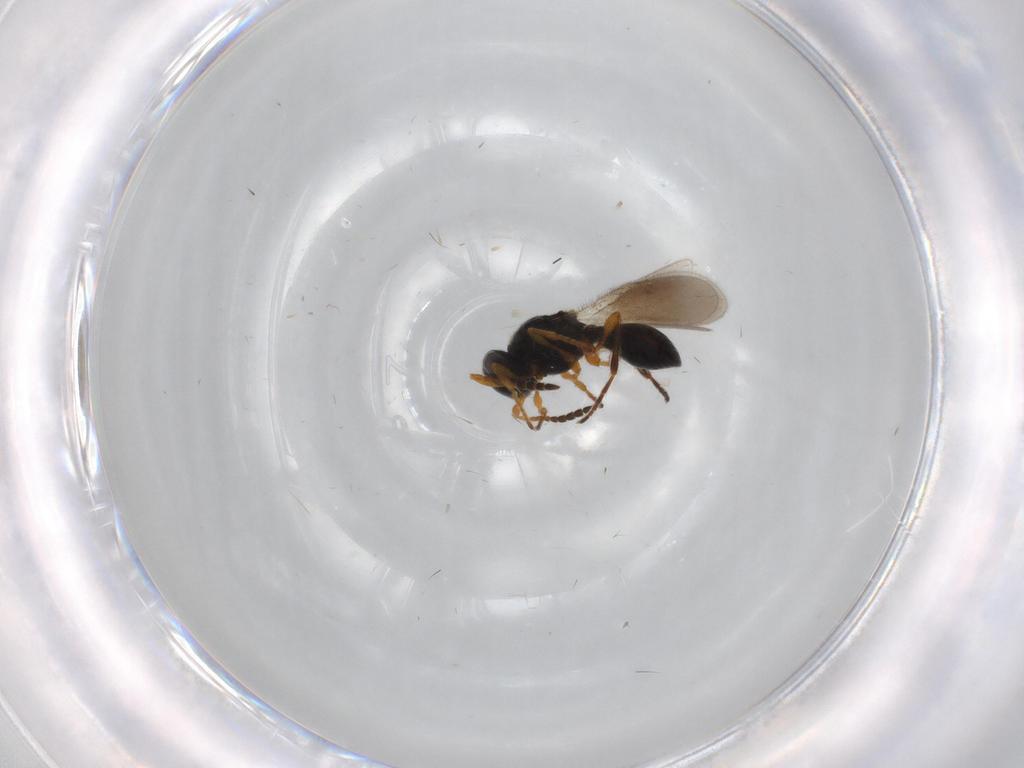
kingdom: Animalia
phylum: Arthropoda
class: Insecta
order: Hymenoptera
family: Platygastridae
